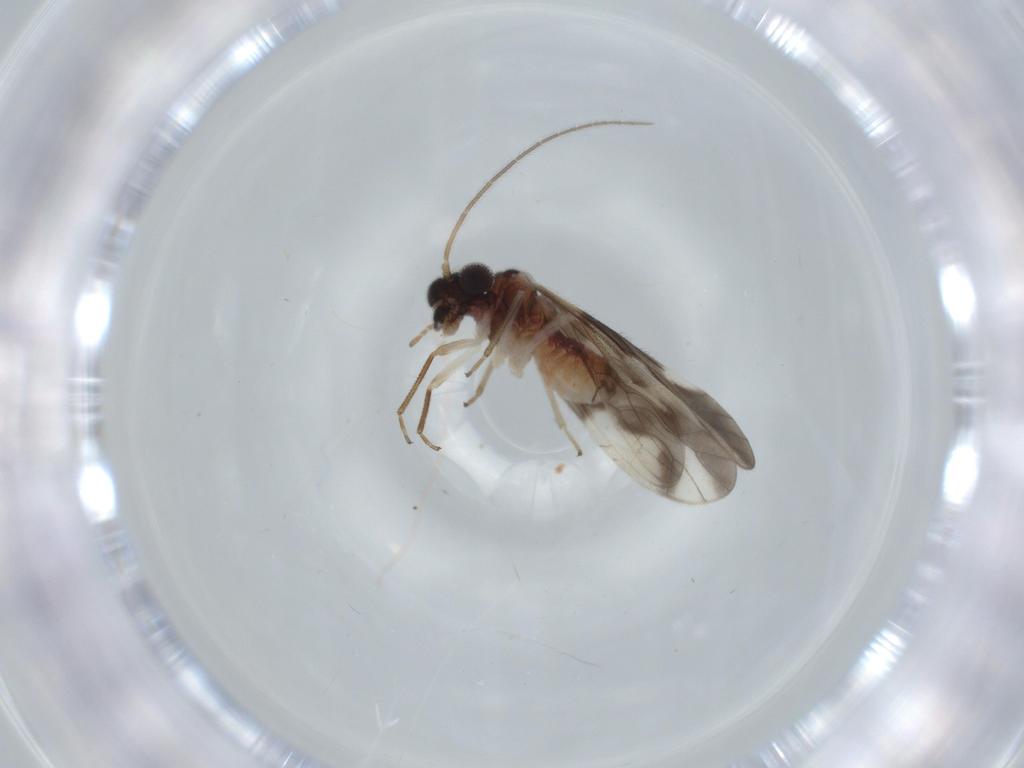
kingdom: Animalia
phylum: Arthropoda
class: Insecta
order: Psocodea
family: Caeciliusidae
